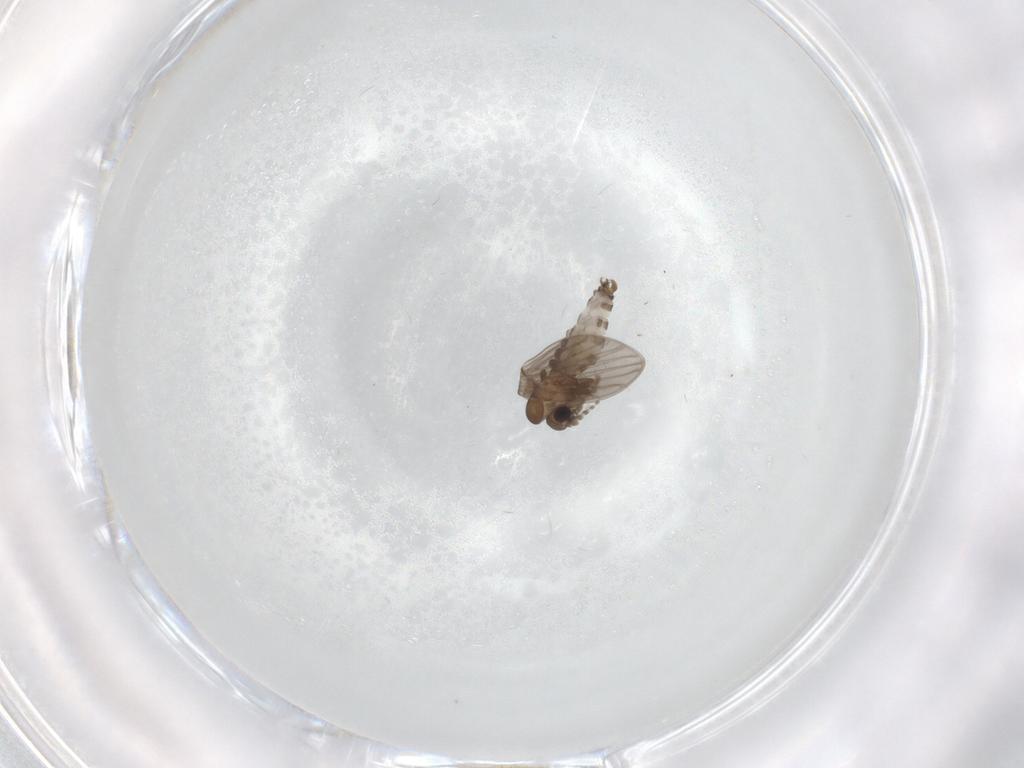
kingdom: Animalia
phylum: Arthropoda
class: Insecta
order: Diptera
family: Psychodidae
